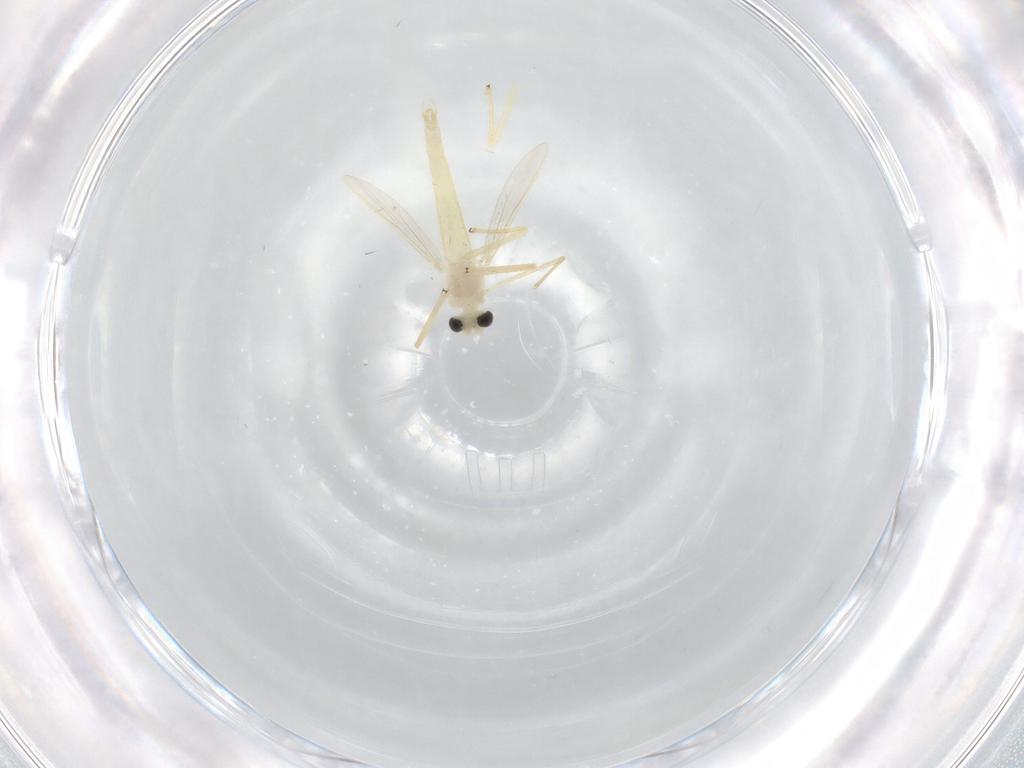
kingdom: Animalia
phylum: Arthropoda
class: Insecta
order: Diptera
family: Chironomidae
